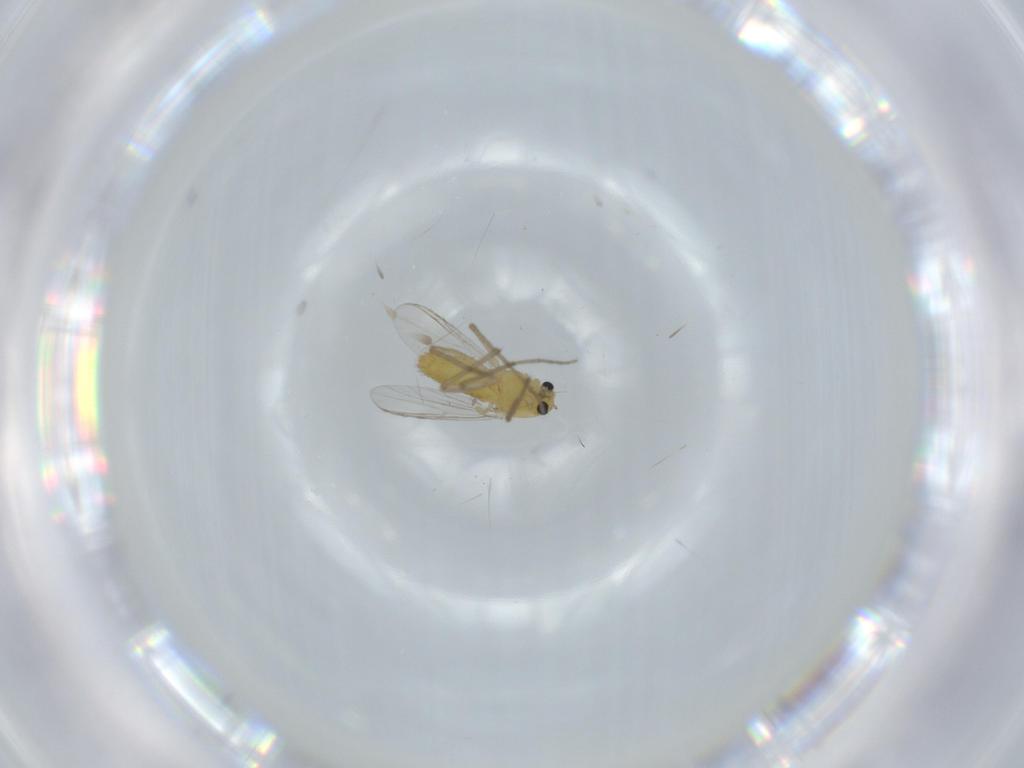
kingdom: Animalia
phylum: Arthropoda
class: Insecta
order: Diptera
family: Chironomidae
